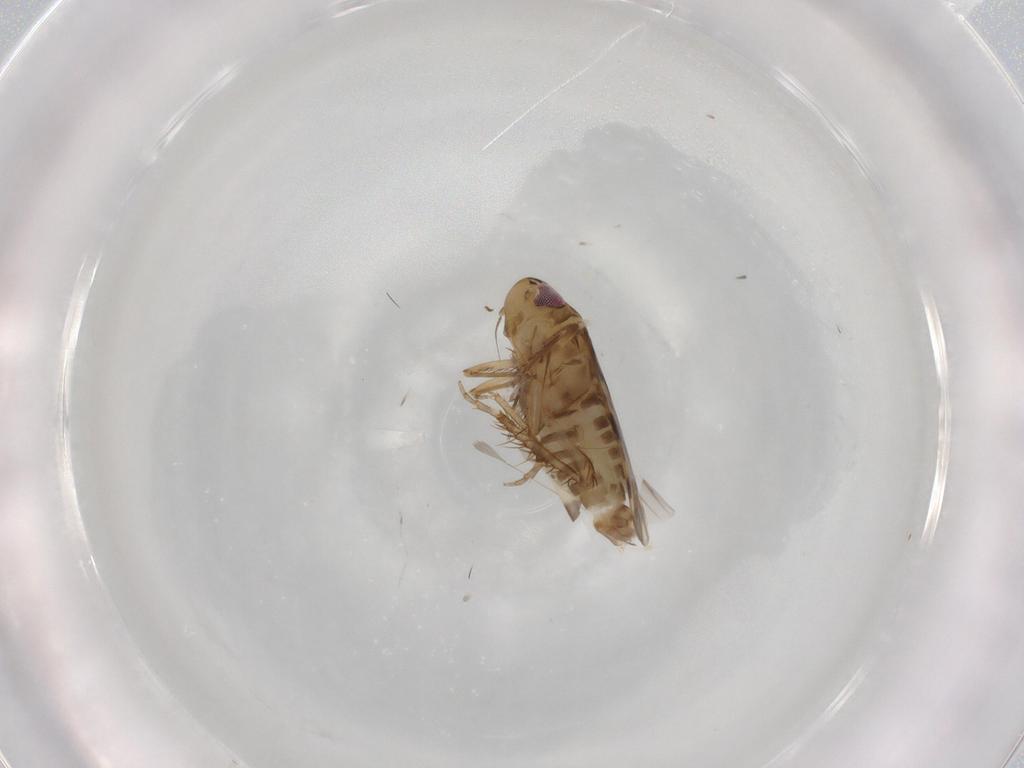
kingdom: Animalia
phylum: Arthropoda
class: Insecta
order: Hemiptera
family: Cicadellidae
